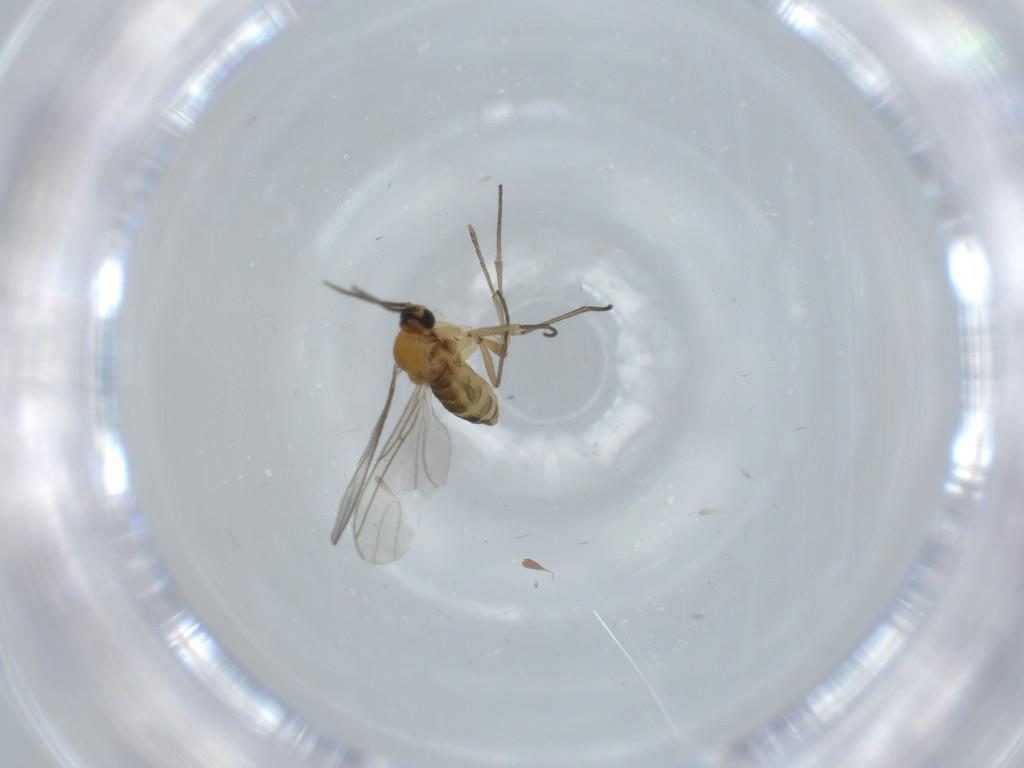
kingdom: Animalia
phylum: Arthropoda
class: Insecta
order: Diptera
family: Sciaridae
